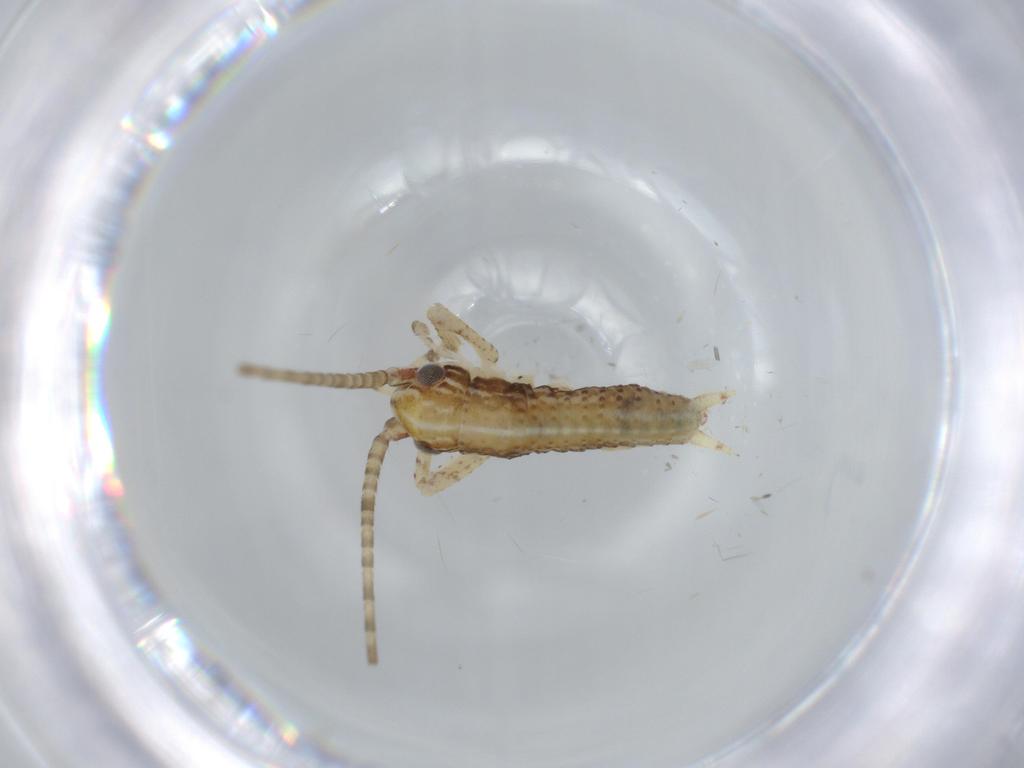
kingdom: Animalia
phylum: Arthropoda
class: Insecta
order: Orthoptera
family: Gryllidae
